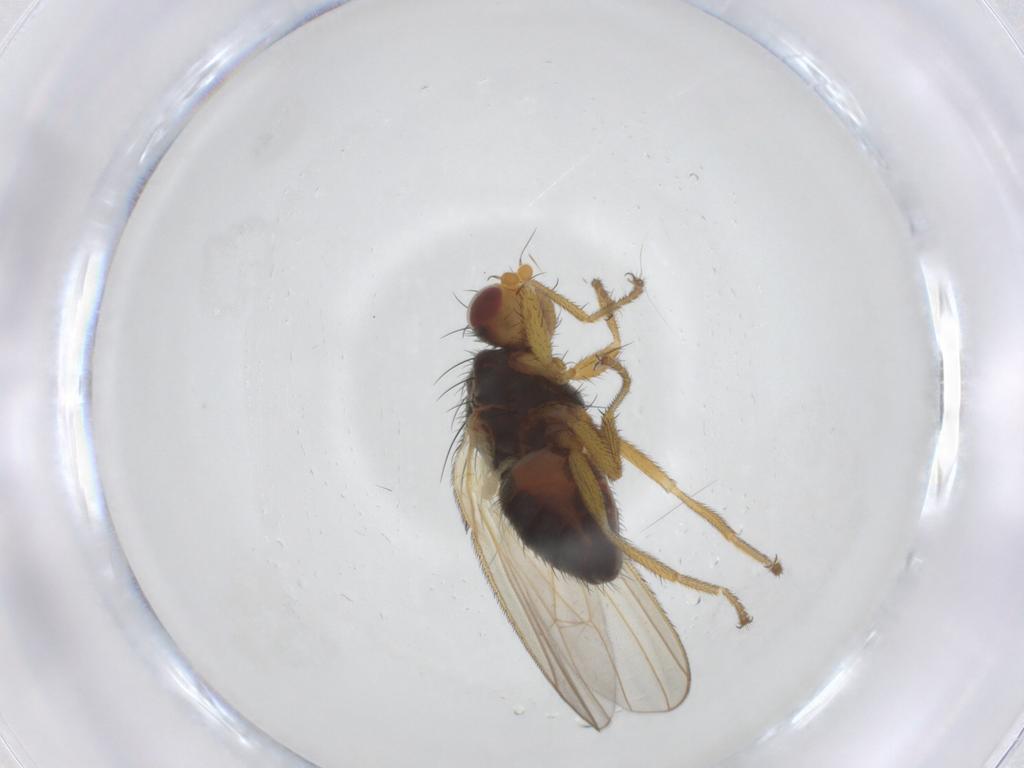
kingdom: Animalia
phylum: Arthropoda
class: Insecta
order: Diptera
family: Heleomyzidae
